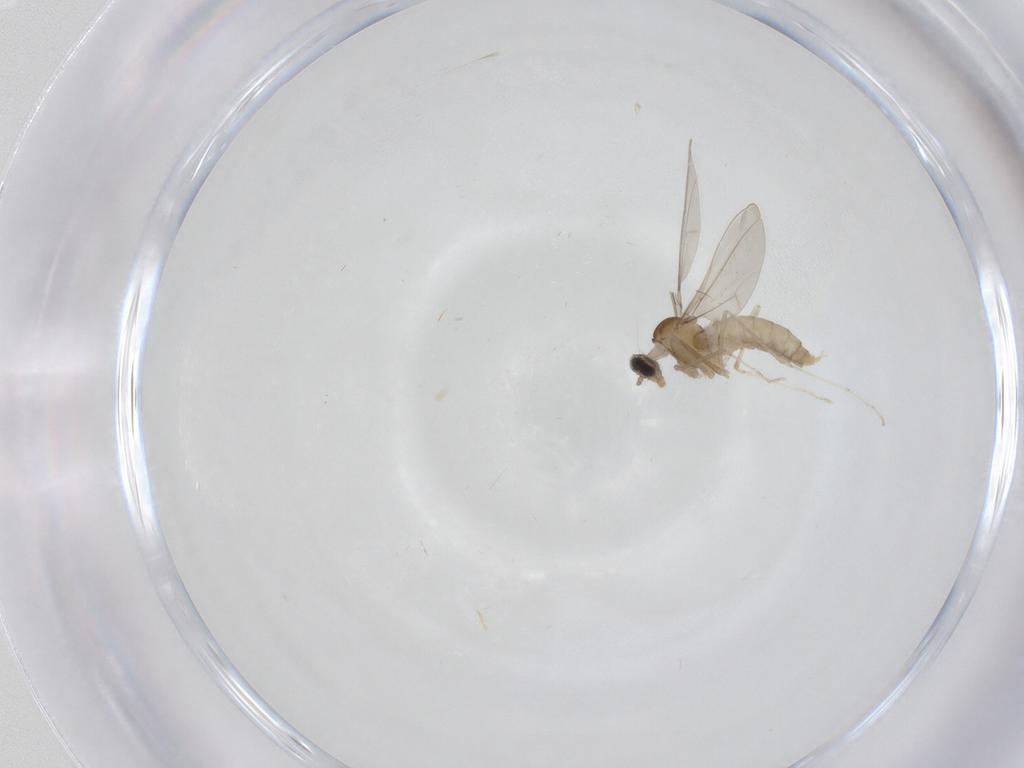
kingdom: Animalia
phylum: Arthropoda
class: Insecta
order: Diptera
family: Cecidomyiidae
